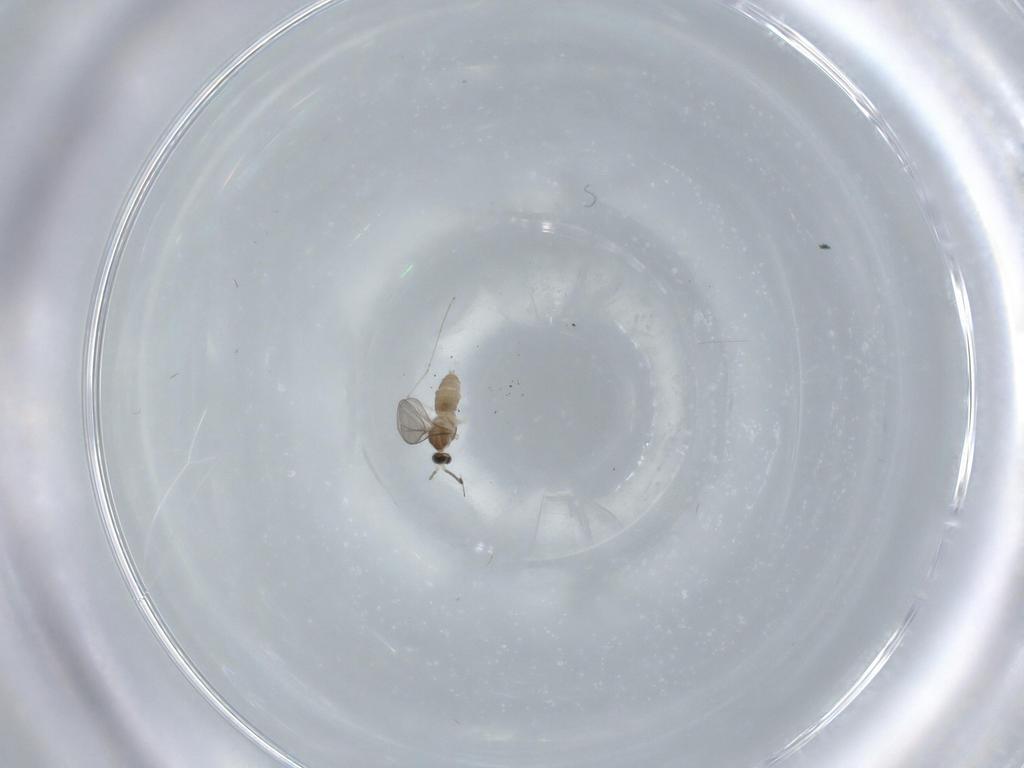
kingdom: Animalia
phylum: Arthropoda
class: Insecta
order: Diptera
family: Cecidomyiidae
